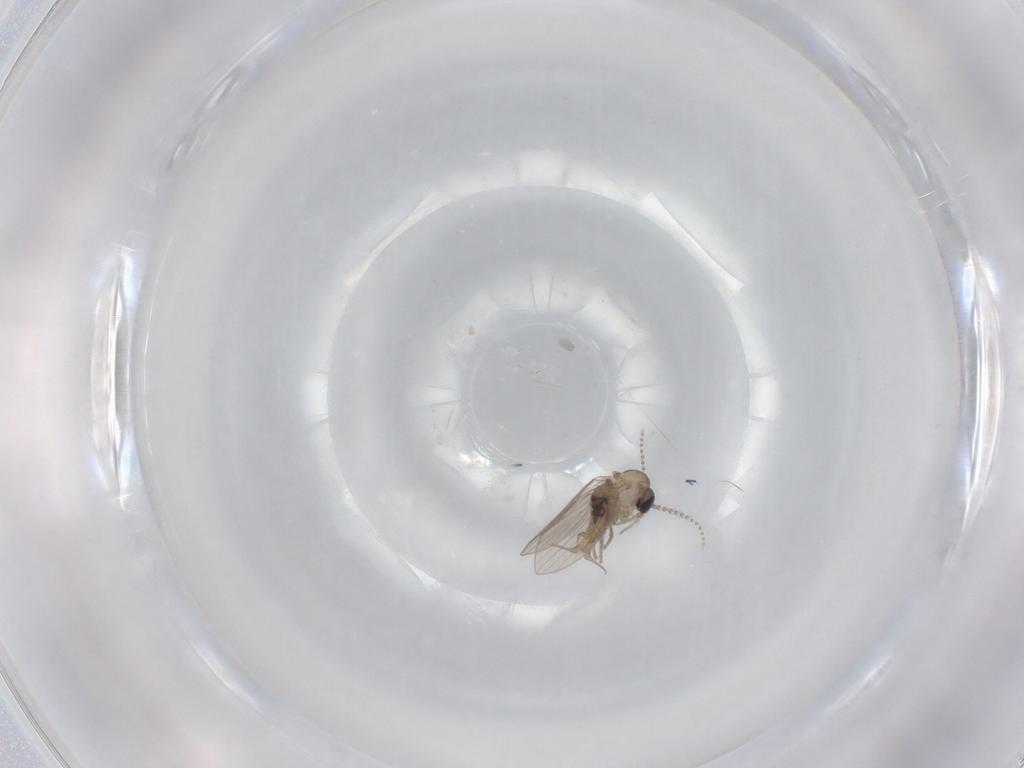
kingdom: Animalia
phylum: Arthropoda
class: Insecta
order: Diptera
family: Psychodidae
